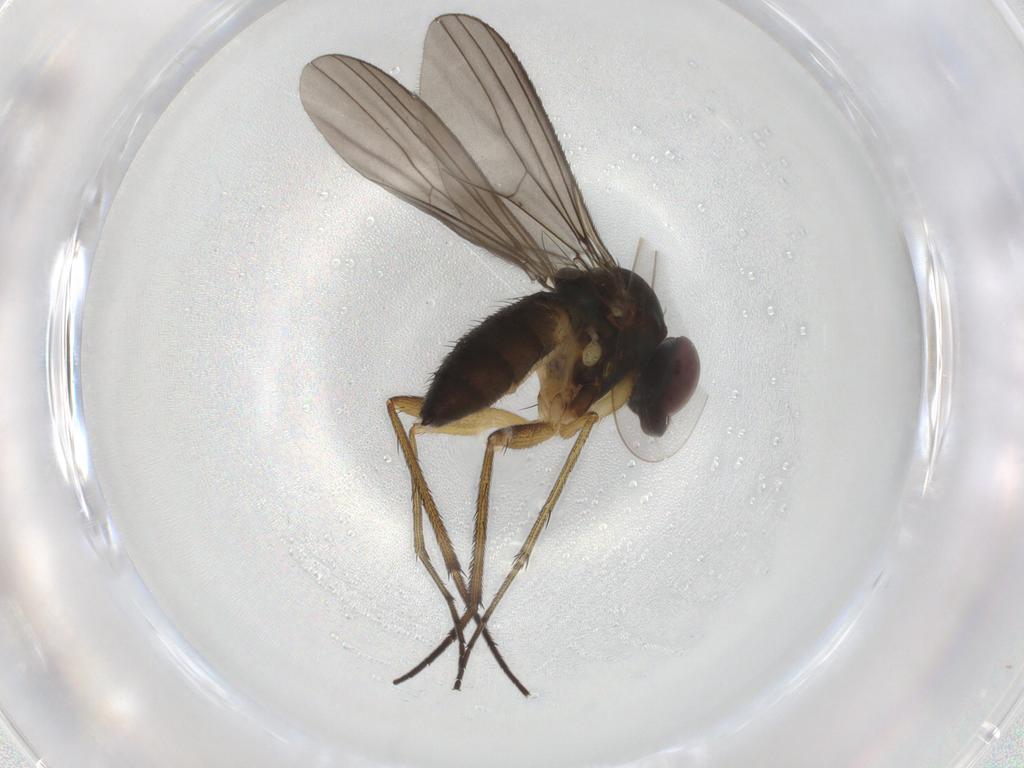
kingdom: Animalia
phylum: Arthropoda
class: Insecta
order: Diptera
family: Dolichopodidae
